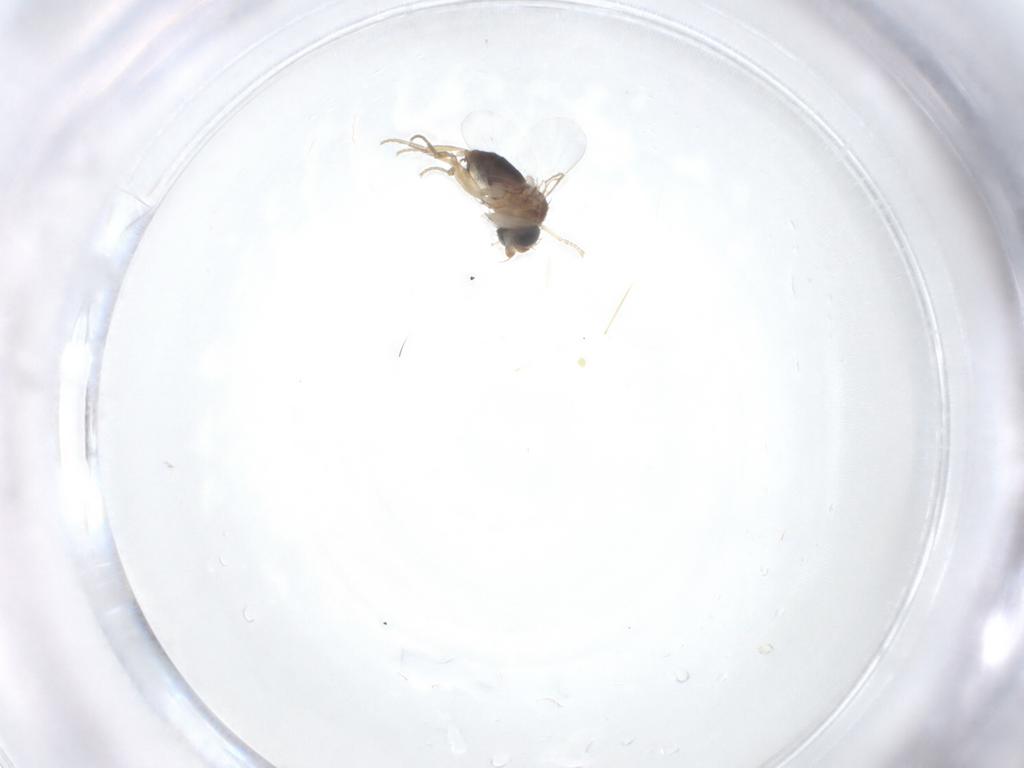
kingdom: Animalia
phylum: Arthropoda
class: Insecta
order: Diptera
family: Phoridae
